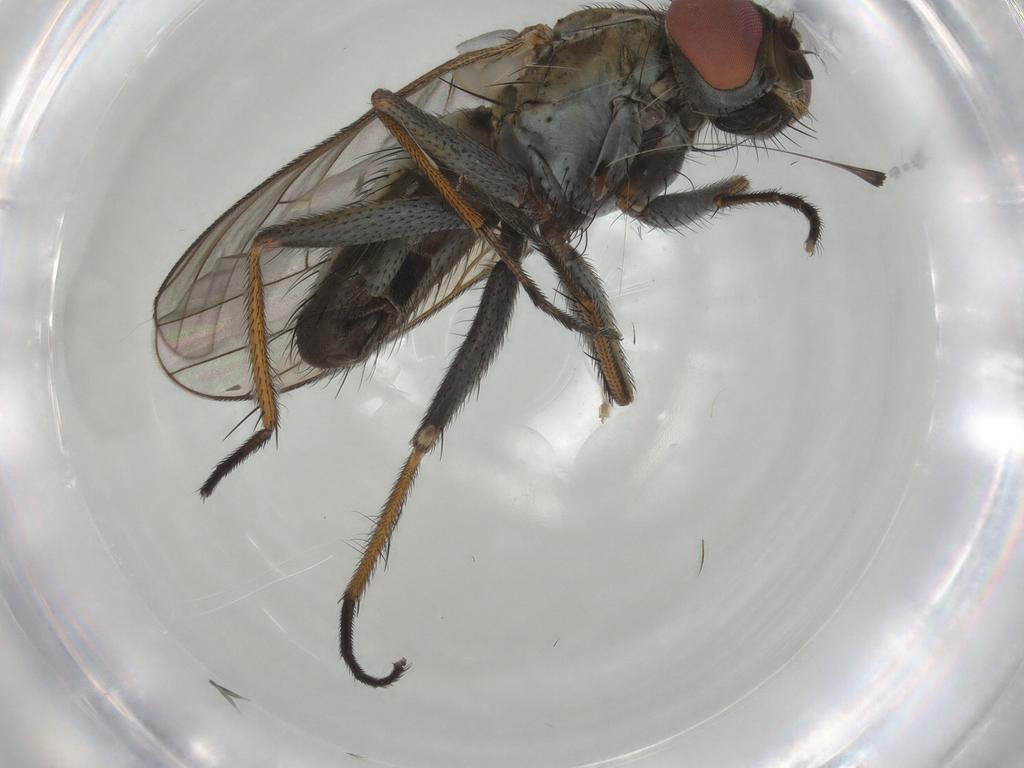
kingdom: Animalia
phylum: Arthropoda
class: Insecta
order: Diptera
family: Muscidae
